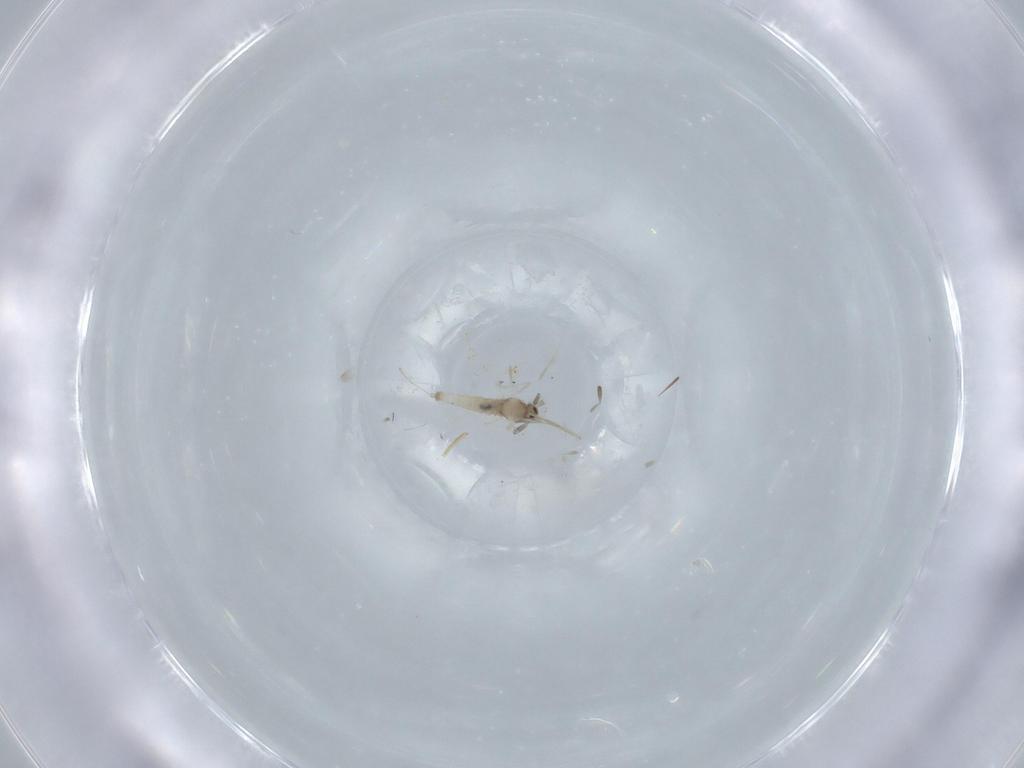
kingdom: Animalia
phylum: Arthropoda
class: Insecta
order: Diptera
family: Cecidomyiidae
